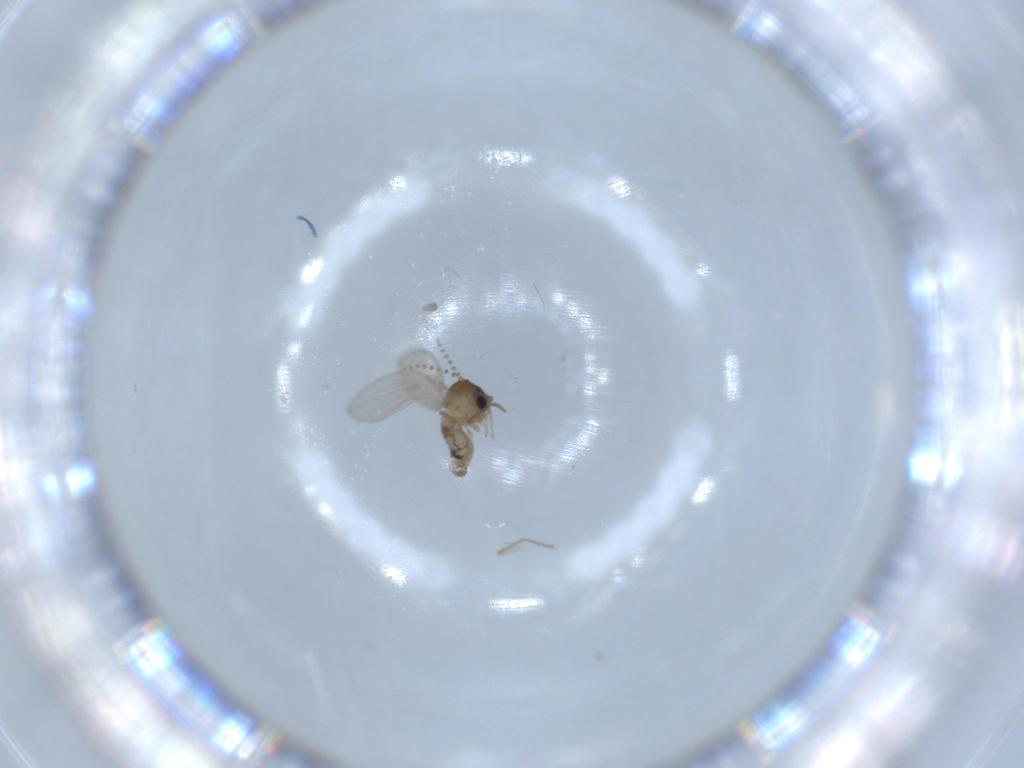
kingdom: Animalia
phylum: Arthropoda
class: Insecta
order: Diptera
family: Psychodidae
